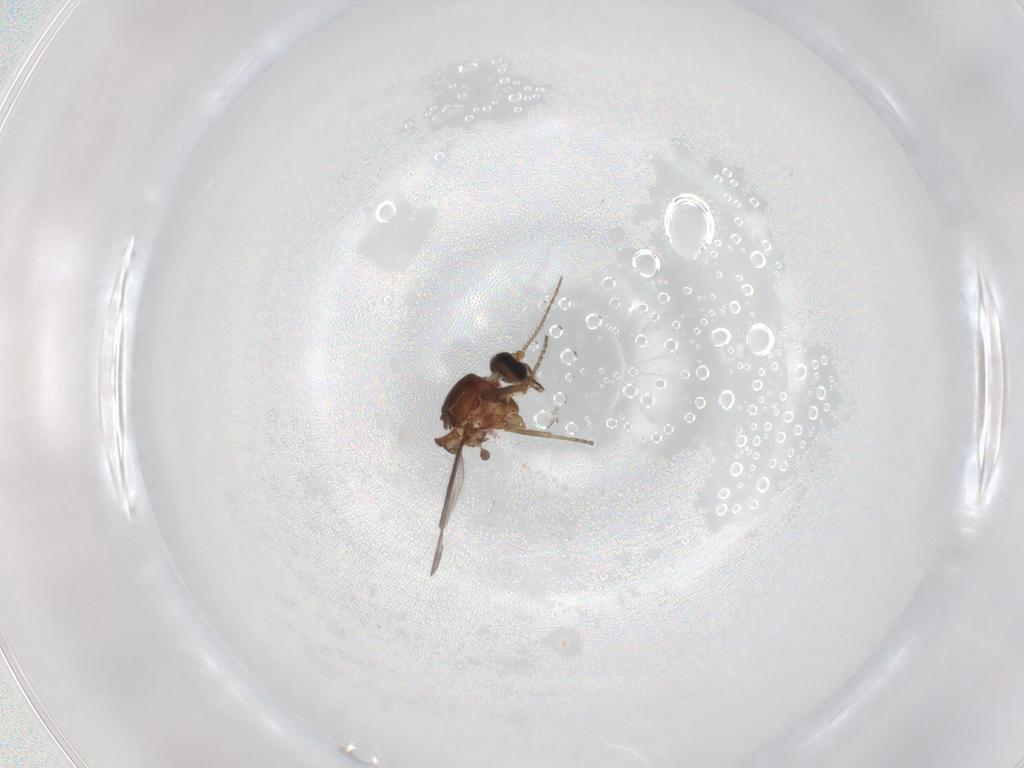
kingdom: Animalia
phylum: Arthropoda
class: Insecta
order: Diptera
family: Ceratopogonidae
